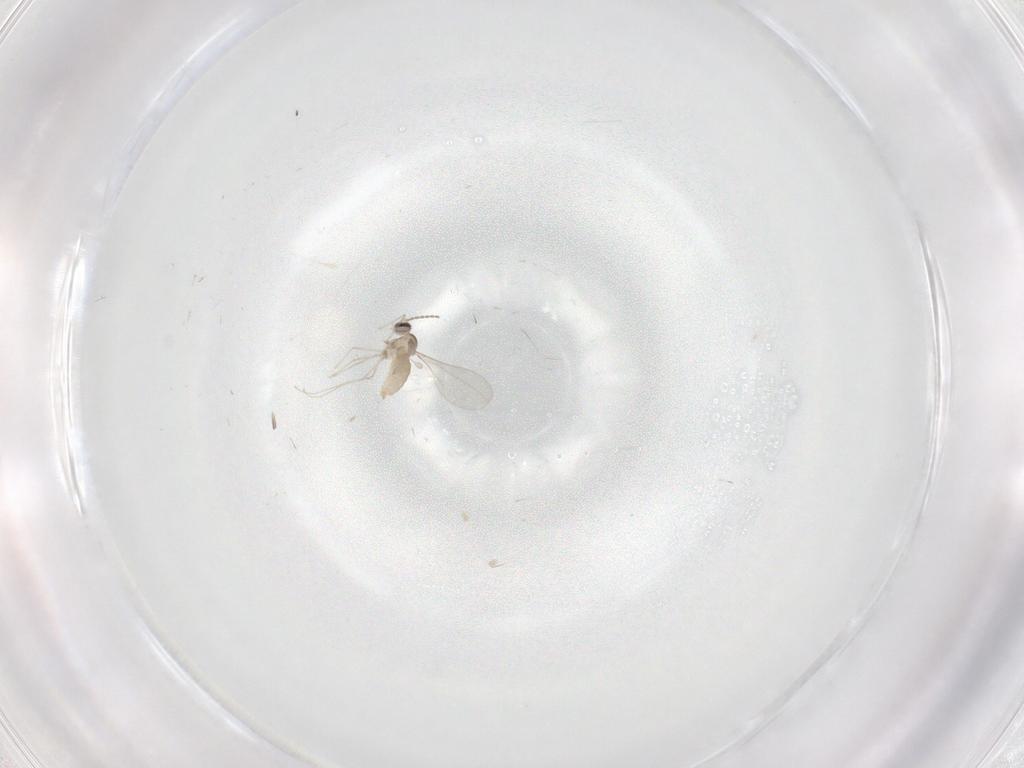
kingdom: Animalia
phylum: Arthropoda
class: Insecta
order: Diptera
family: Cecidomyiidae
